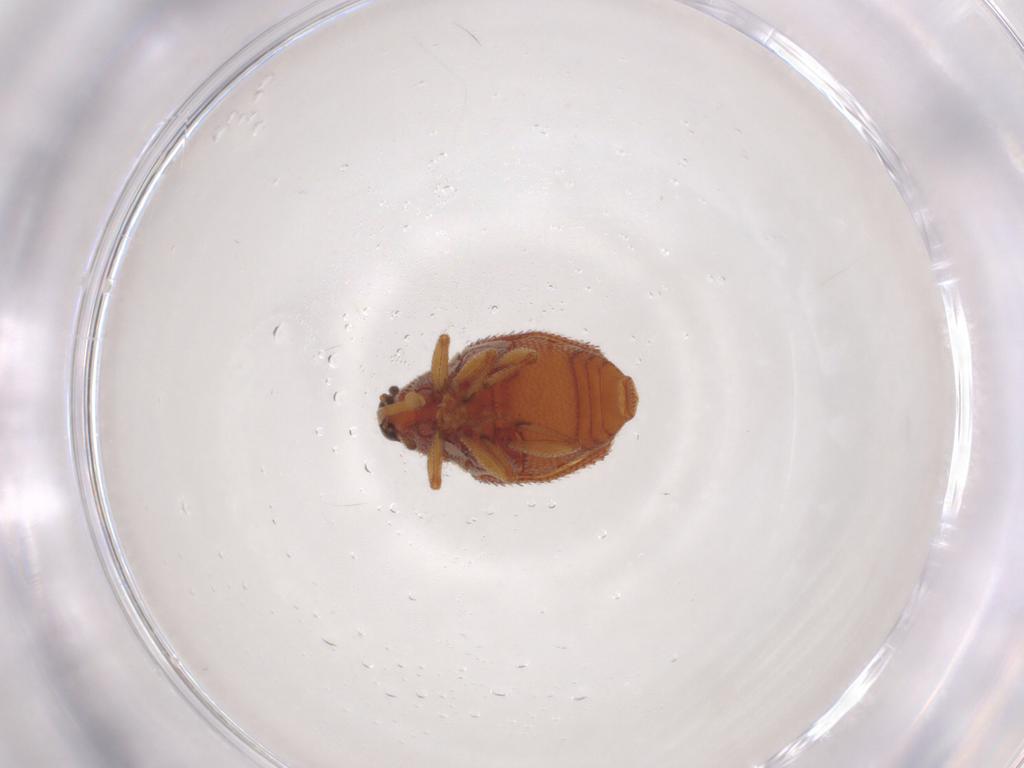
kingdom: Animalia
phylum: Arthropoda
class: Insecta
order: Coleoptera
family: Curculionidae
